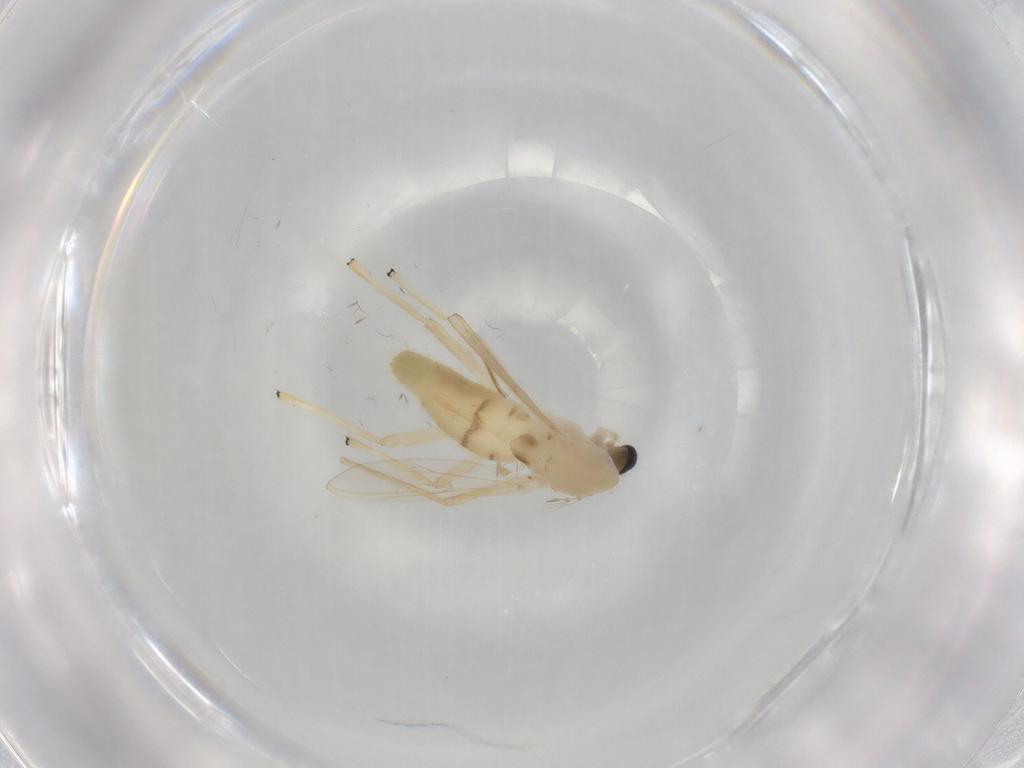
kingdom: Animalia
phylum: Arthropoda
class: Insecta
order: Diptera
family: Chironomidae
